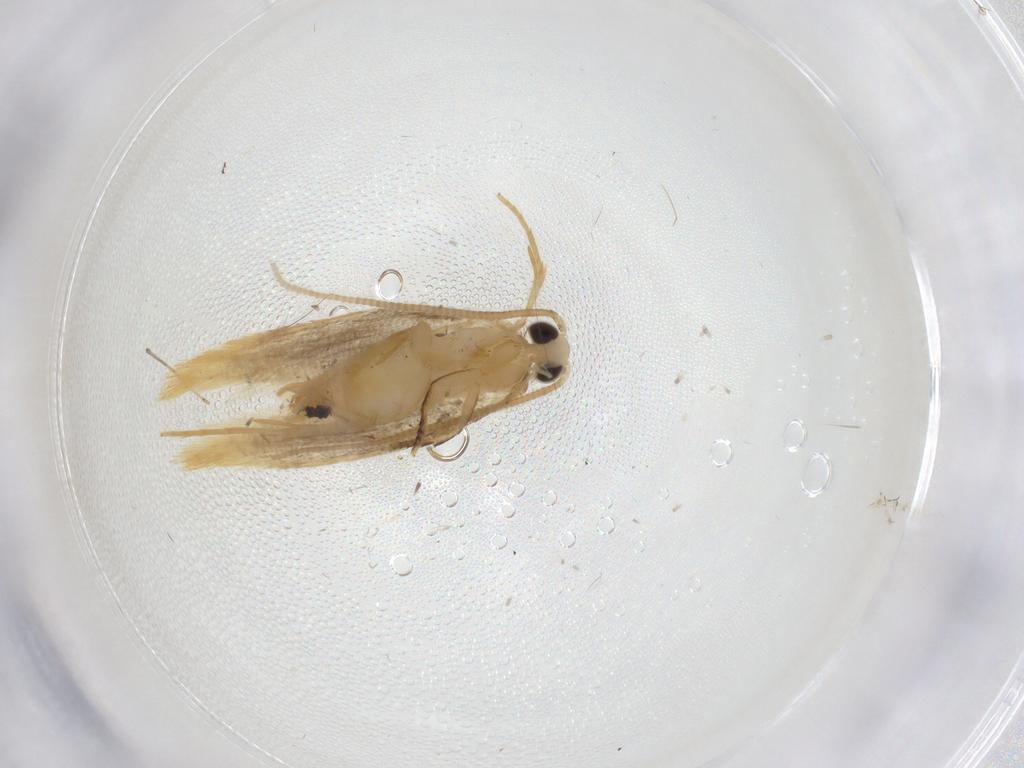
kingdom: Animalia
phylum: Arthropoda
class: Insecta
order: Lepidoptera
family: Nepticulidae
